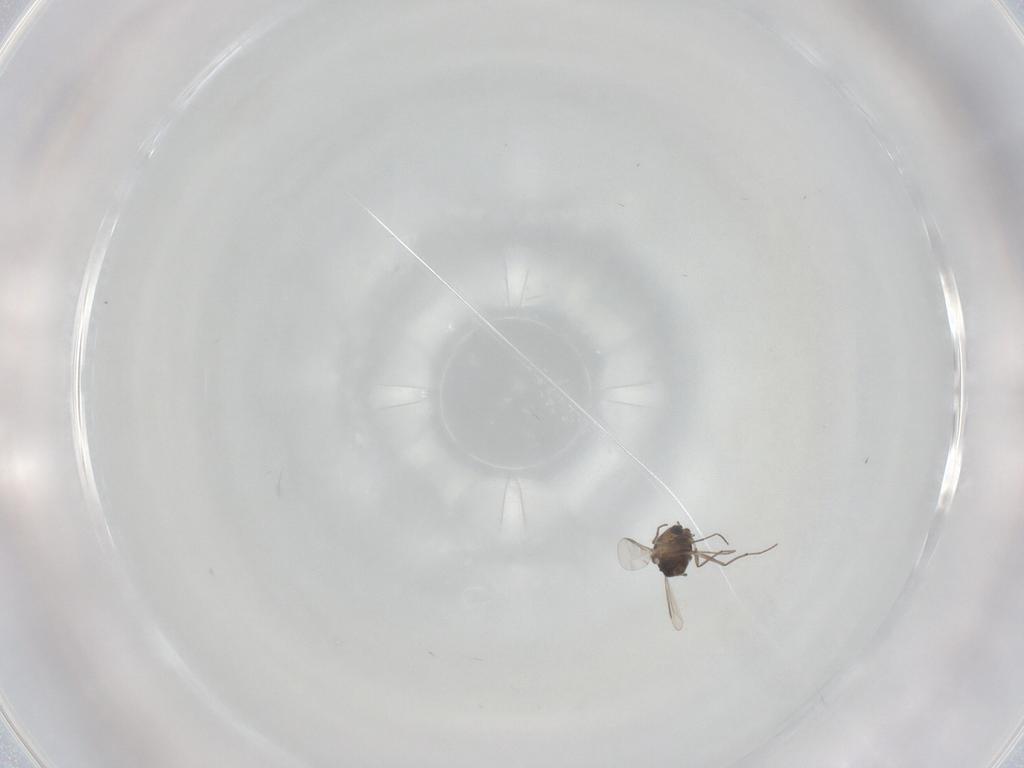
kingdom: Animalia
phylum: Arthropoda
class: Insecta
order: Diptera
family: Chironomidae
